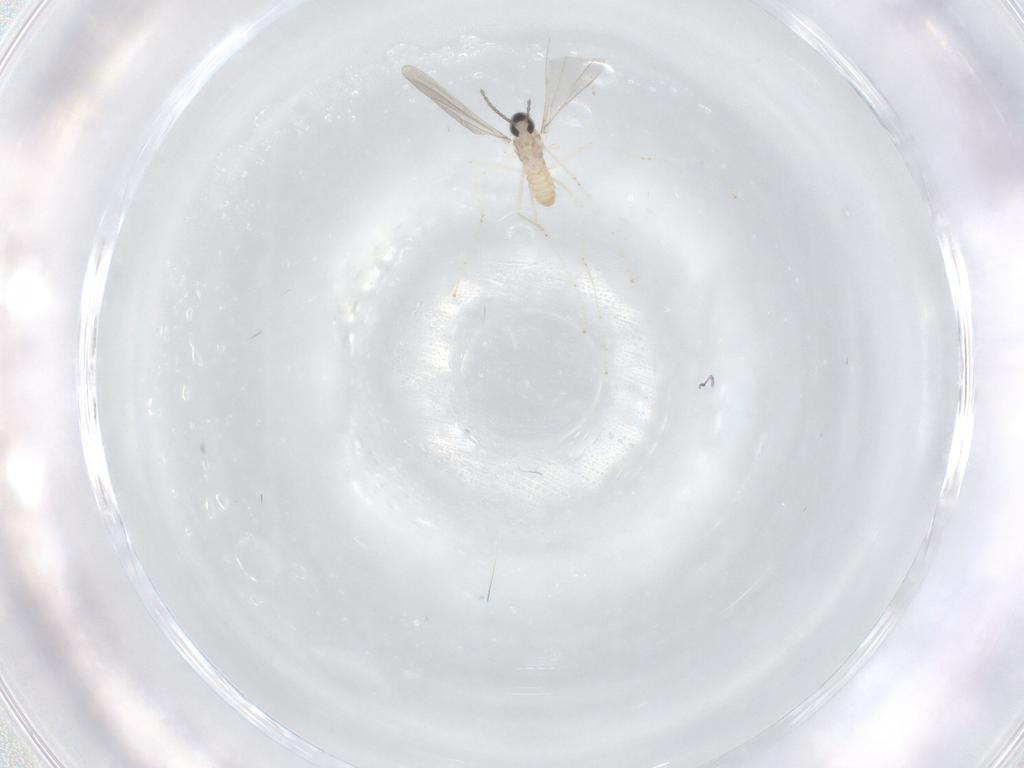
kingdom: Animalia
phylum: Arthropoda
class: Insecta
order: Diptera
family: Cecidomyiidae
